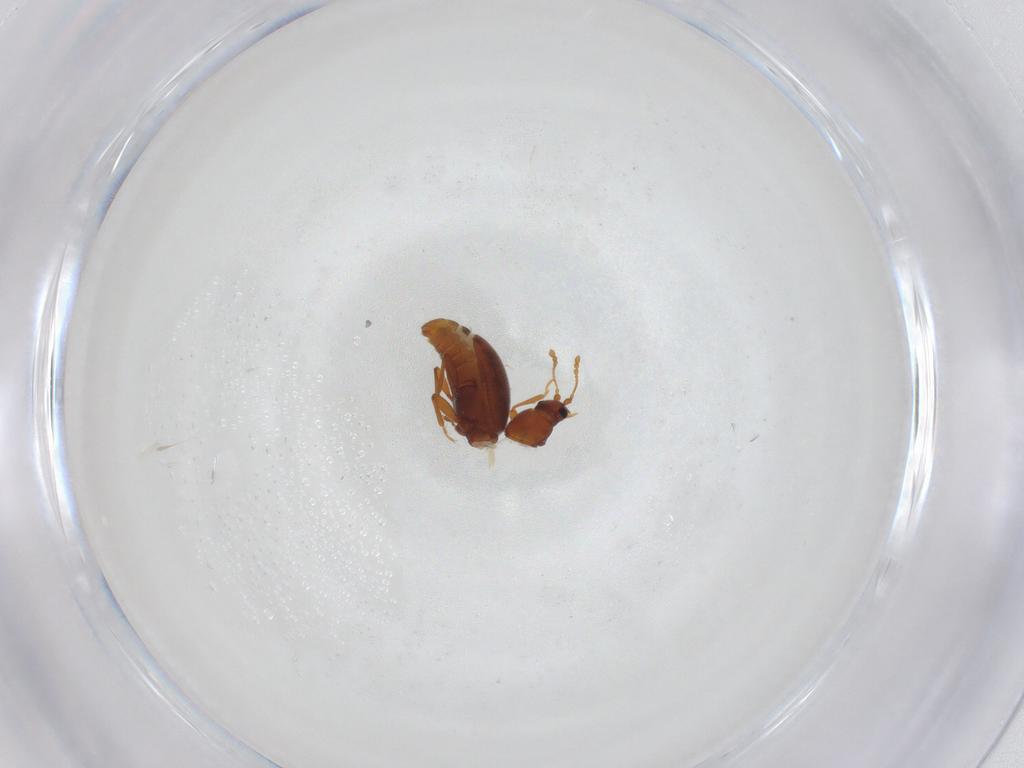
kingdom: Animalia
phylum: Arthropoda
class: Insecta
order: Coleoptera
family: Latridiidae
